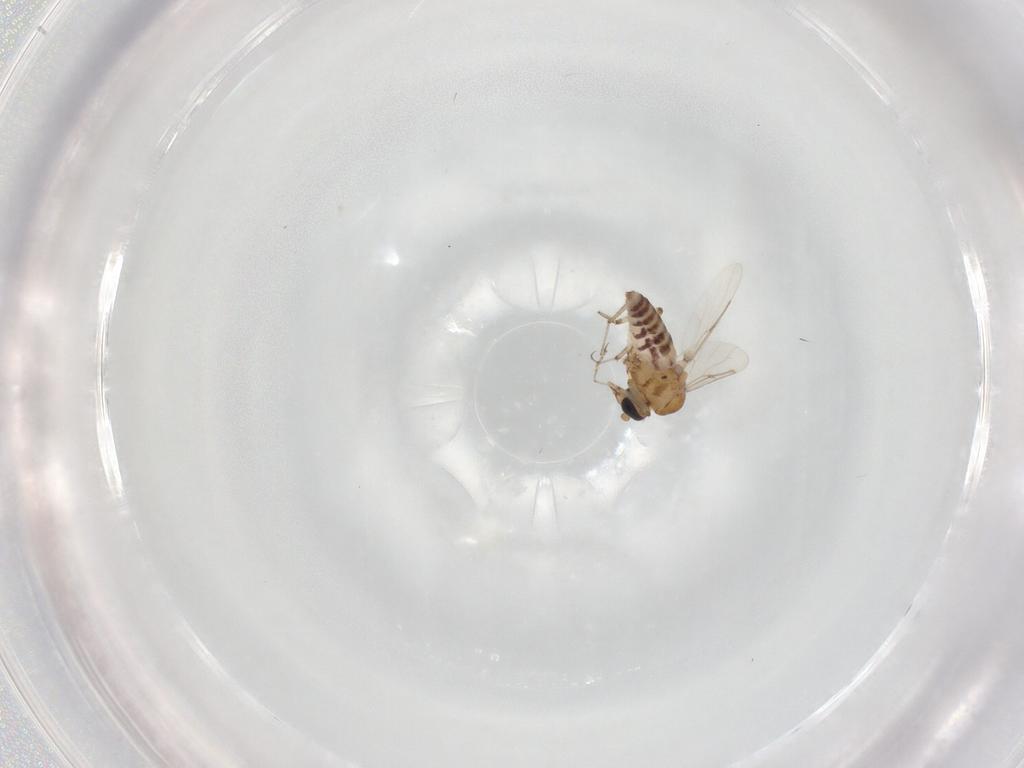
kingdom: Animalia
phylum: Arthropoda
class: Insecta
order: Diptera
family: Ceratopogonidae
